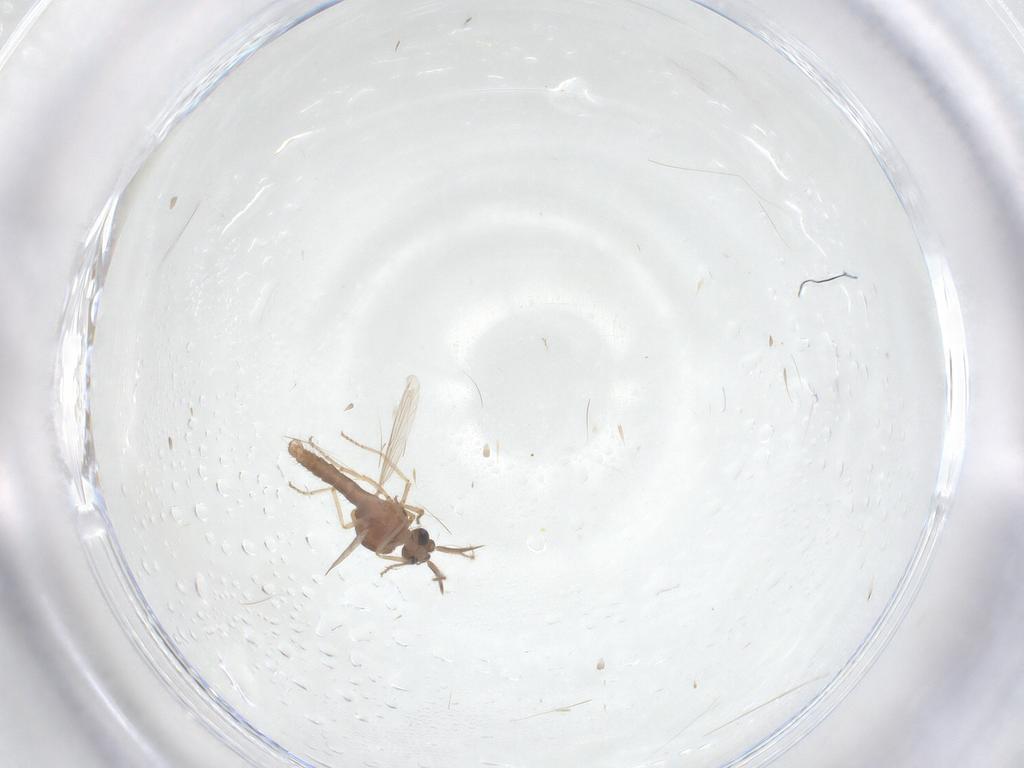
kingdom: Animalia
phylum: Arthropoda
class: Insecta
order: Diptera
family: Ceratopogonidae
